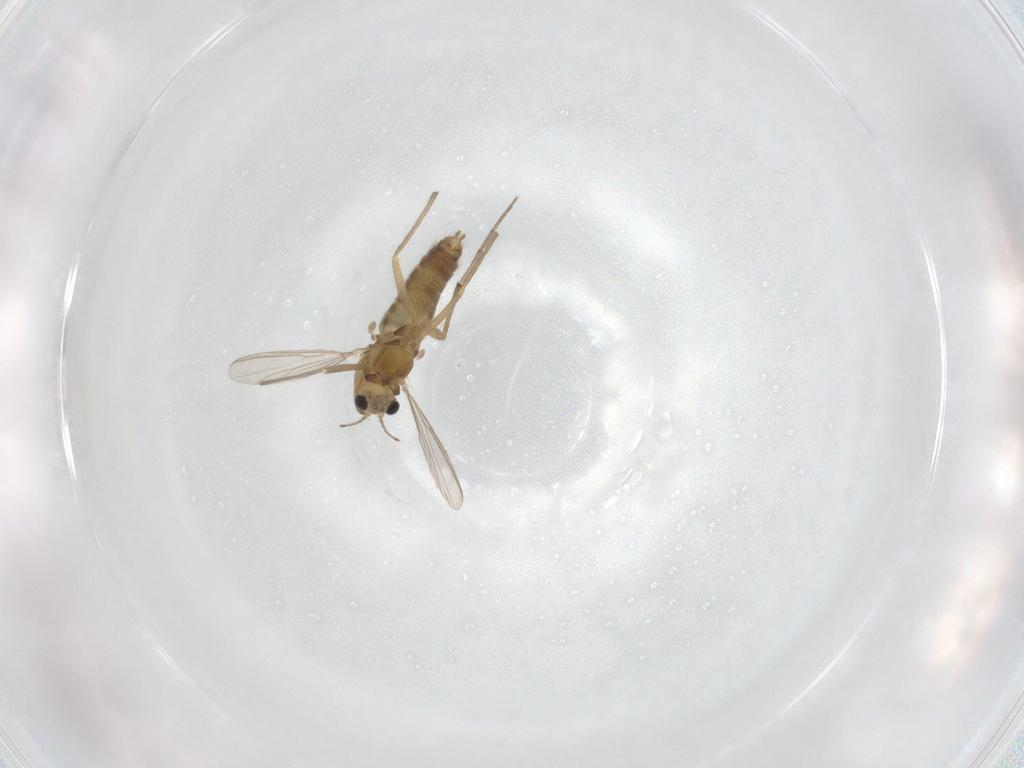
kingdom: Animalia
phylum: Arthropoda
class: Insecta
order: Diptera
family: Chironomidae
